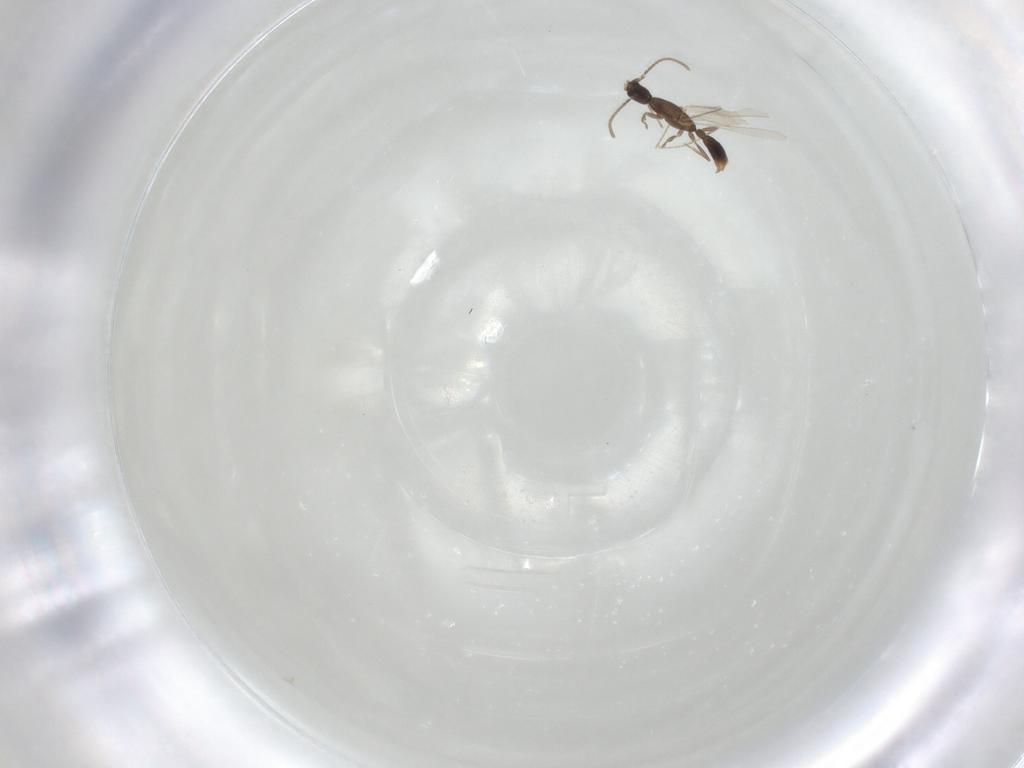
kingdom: Animalia
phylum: Arthropoda
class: Insecta
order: Hymenoptera
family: Formicidae
